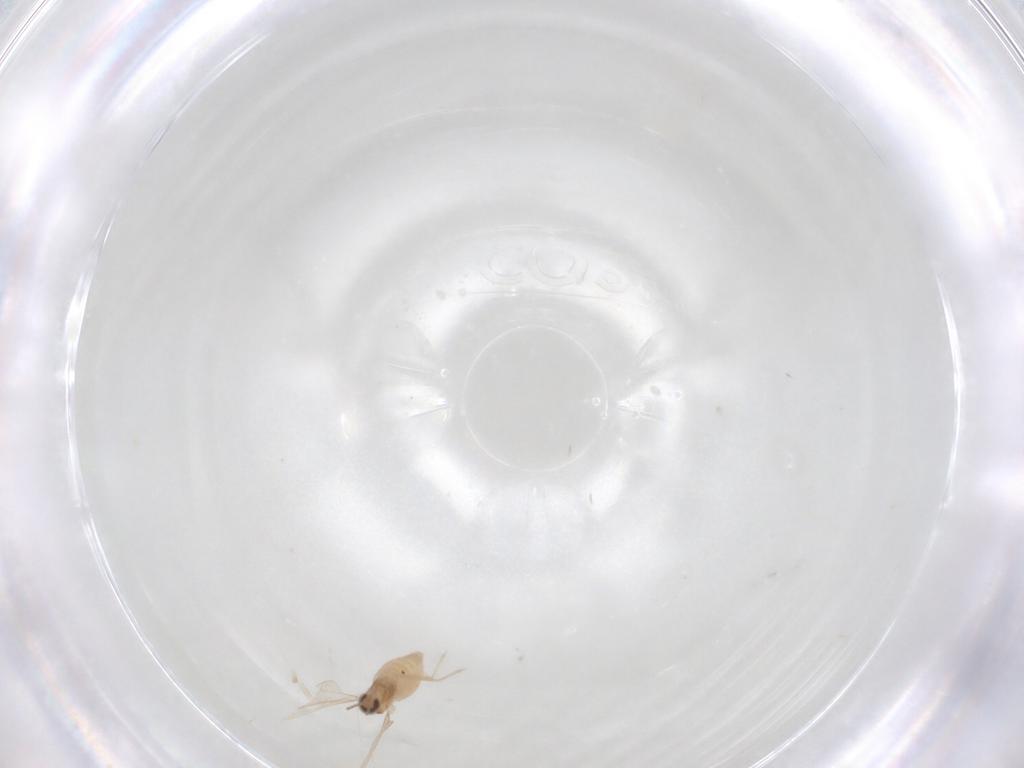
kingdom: Animalia
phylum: Arthropoda
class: Insecta
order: Diptera
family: Cecidomyiidae
